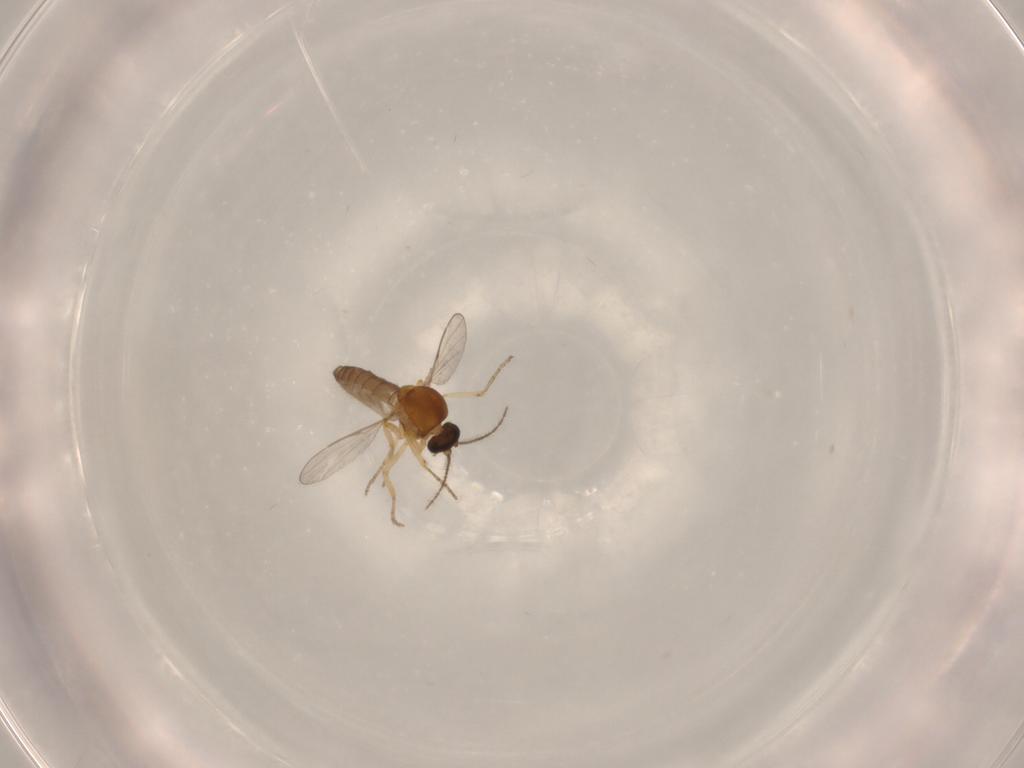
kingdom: Animalia
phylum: Arthropoda
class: Insecta
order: Diptera
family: Ceratopogonidae
